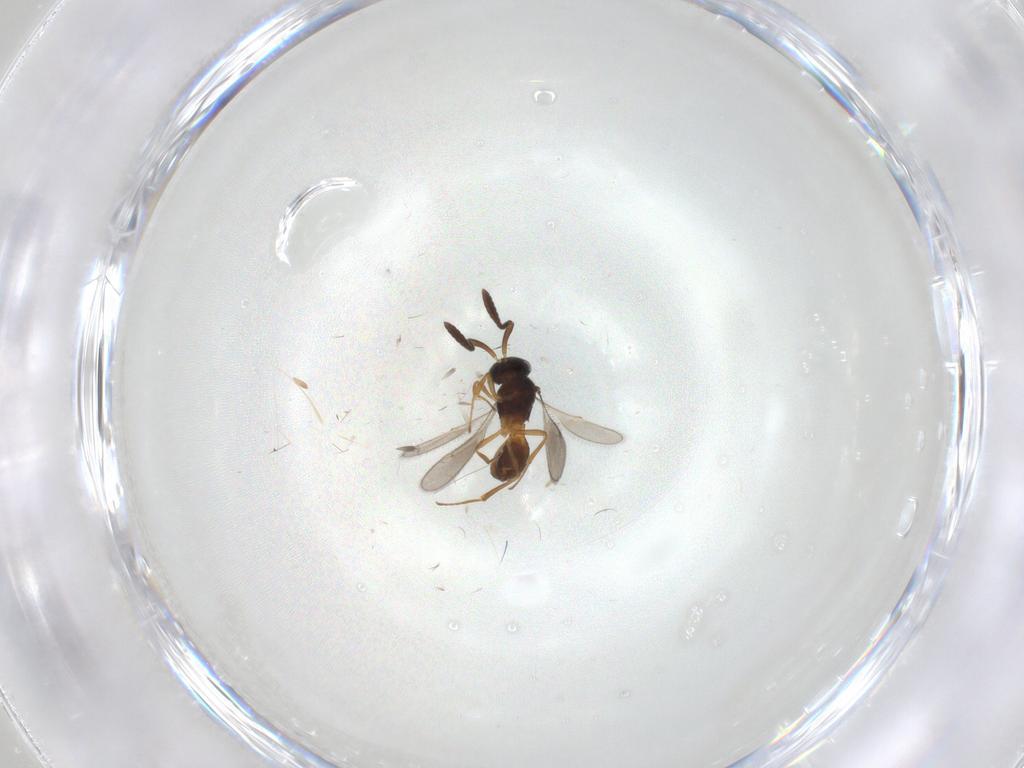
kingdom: Animalia
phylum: Arthropoda
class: Insecta
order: Hymenoptera
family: Scelionidae
